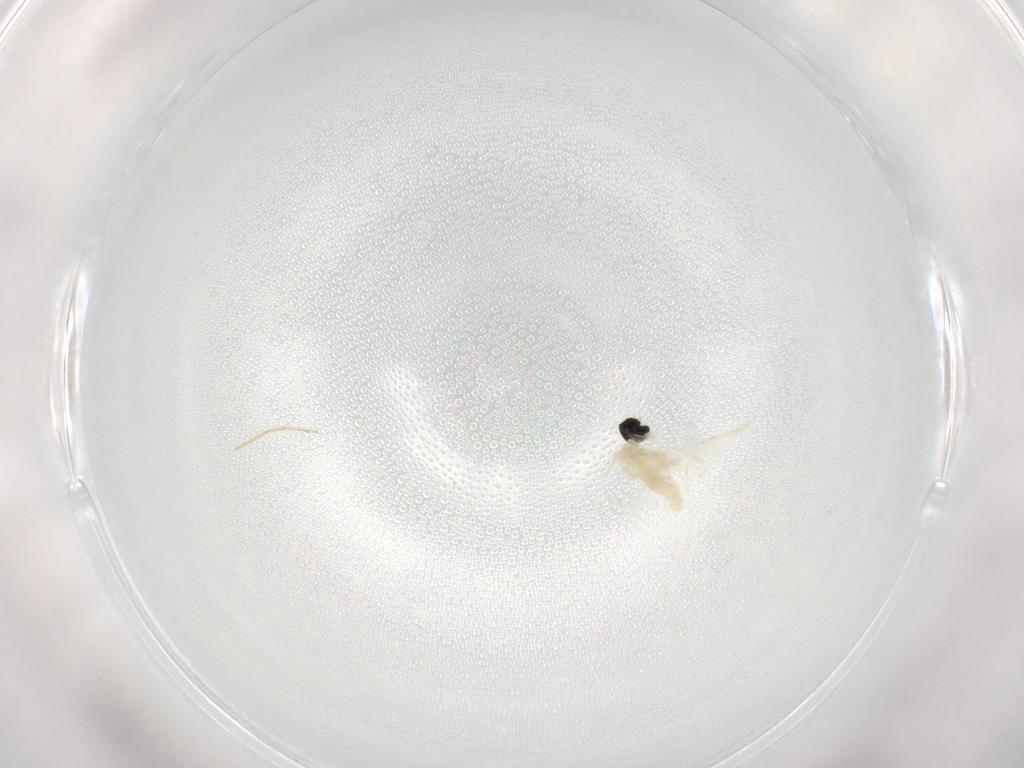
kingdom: Animalia
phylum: Arthropoda
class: Insecta
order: Diptera
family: Cecidomyiidae
